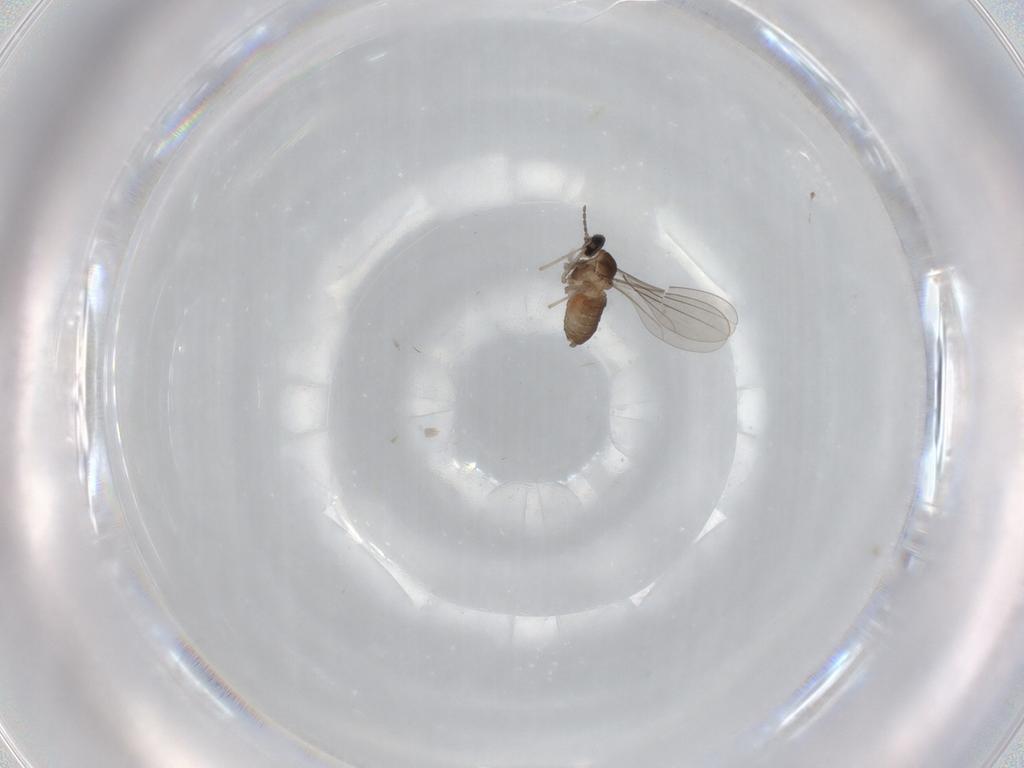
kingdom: Animalia
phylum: Arthropoda
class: Insecta
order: Diptera
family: Cecidomyiidae
